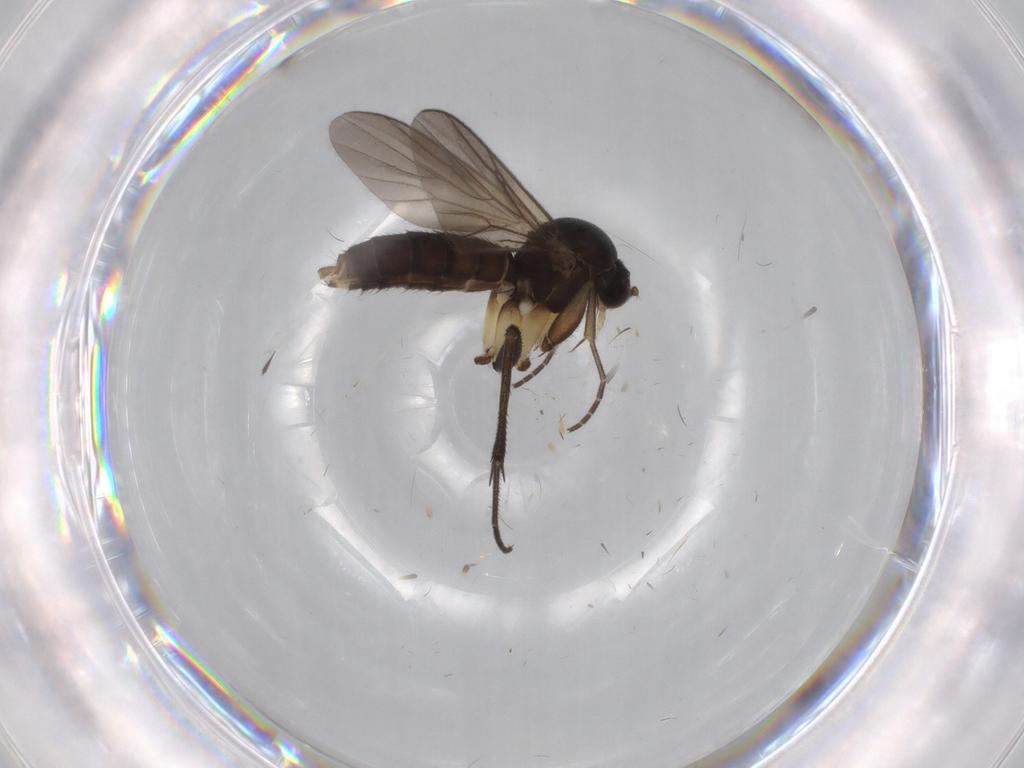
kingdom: Animalia
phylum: Arthropoda
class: Insecta
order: Diptera
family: Mycetophilidae
